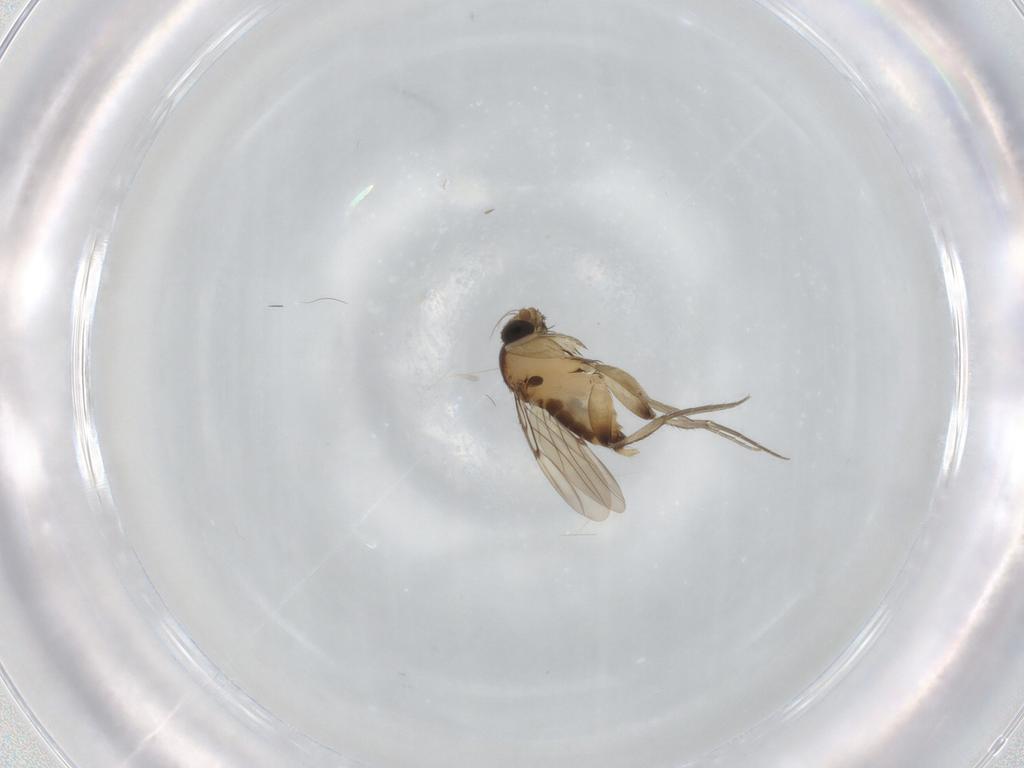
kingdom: Animalia
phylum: Arthropoda
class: Insecta
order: Diptera
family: Phoridae
